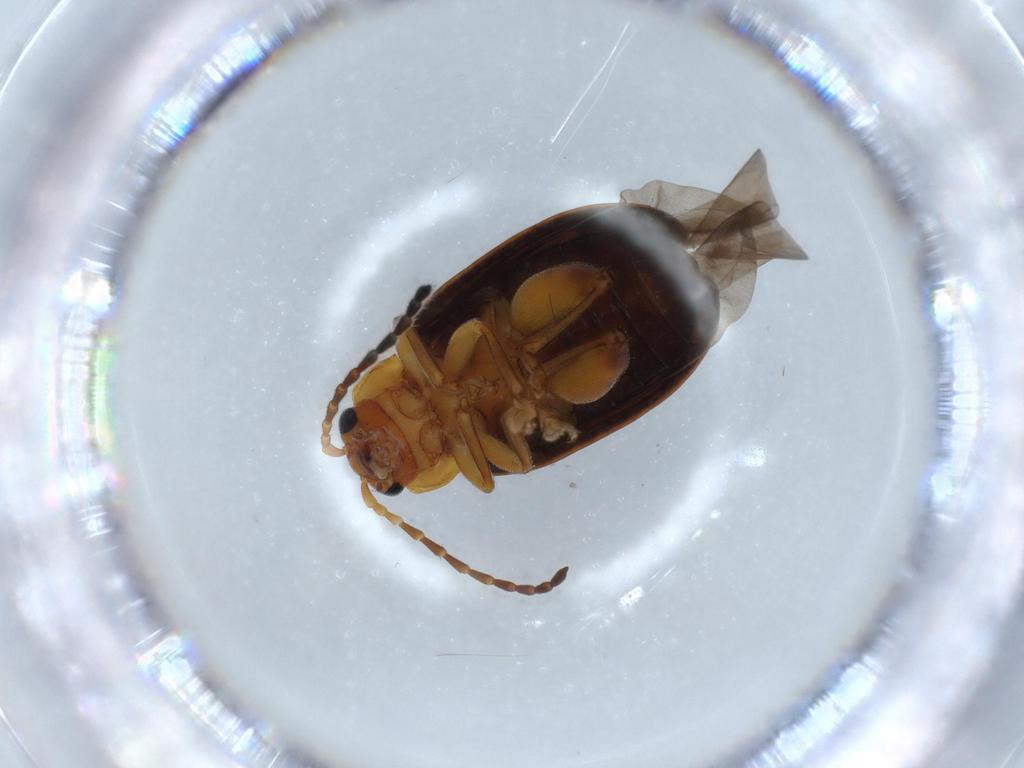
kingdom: Animalia
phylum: Arthropoda
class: Insecta
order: Coleoptera
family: Chrysomelidae
